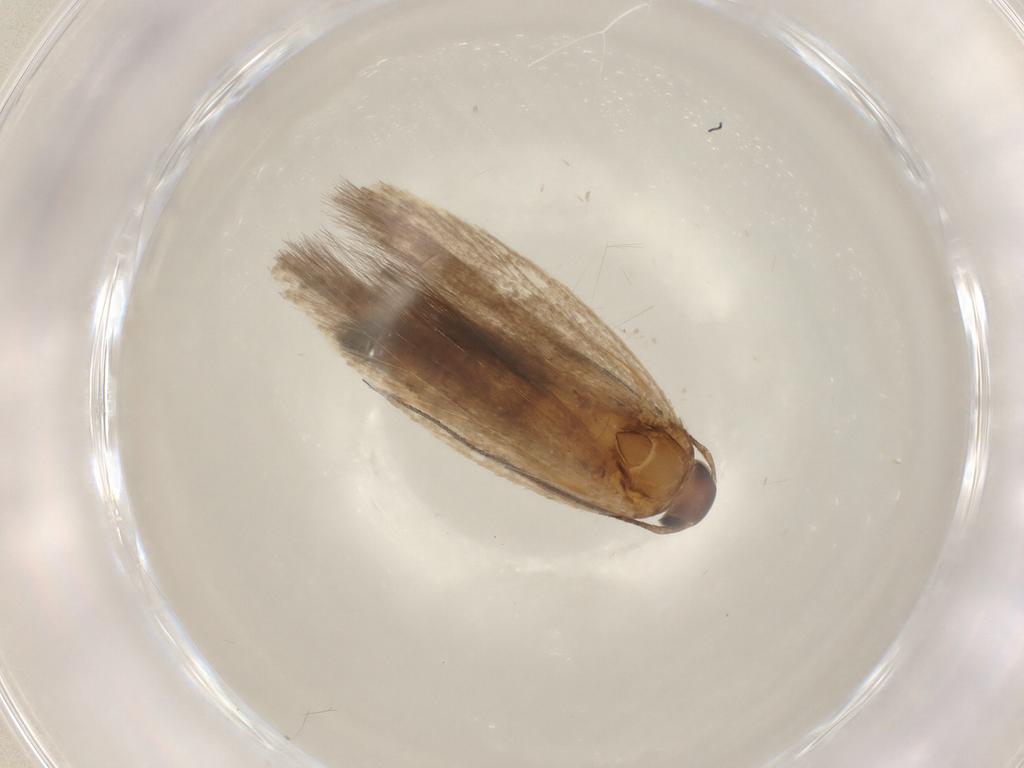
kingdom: Animalia
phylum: Arthropoda
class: Insecta
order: Lepidoptera
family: Gelechiidae
